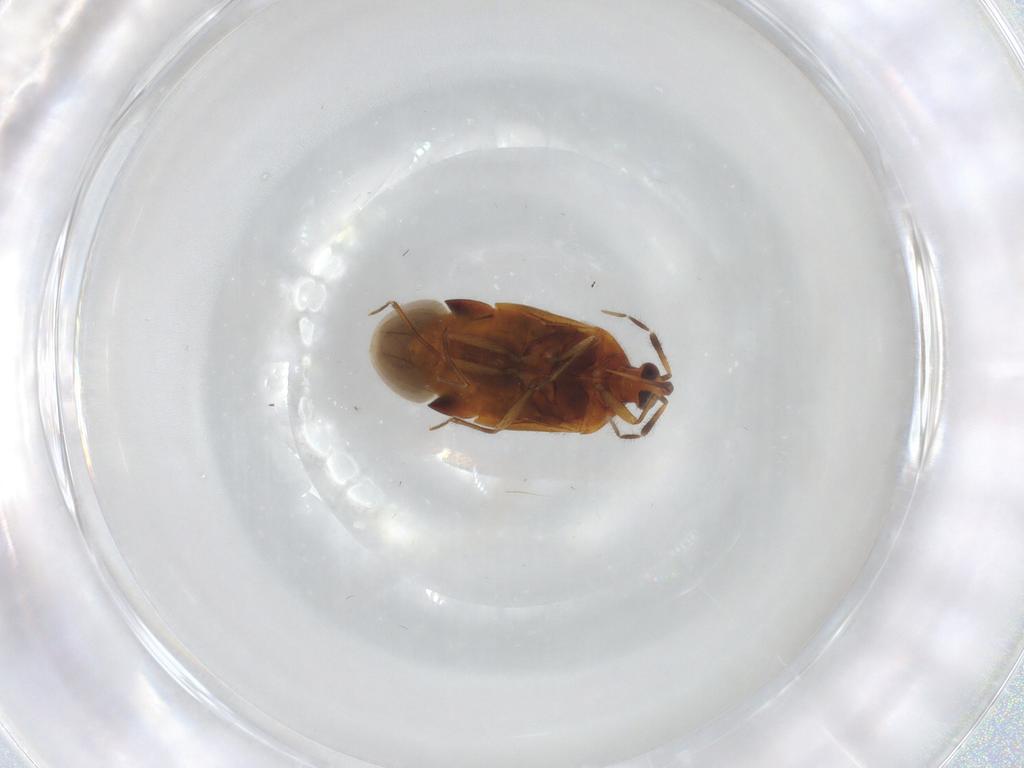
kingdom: Animalia
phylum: Arthropoda
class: Insecta
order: Hemiptera
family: Anthocoridae
